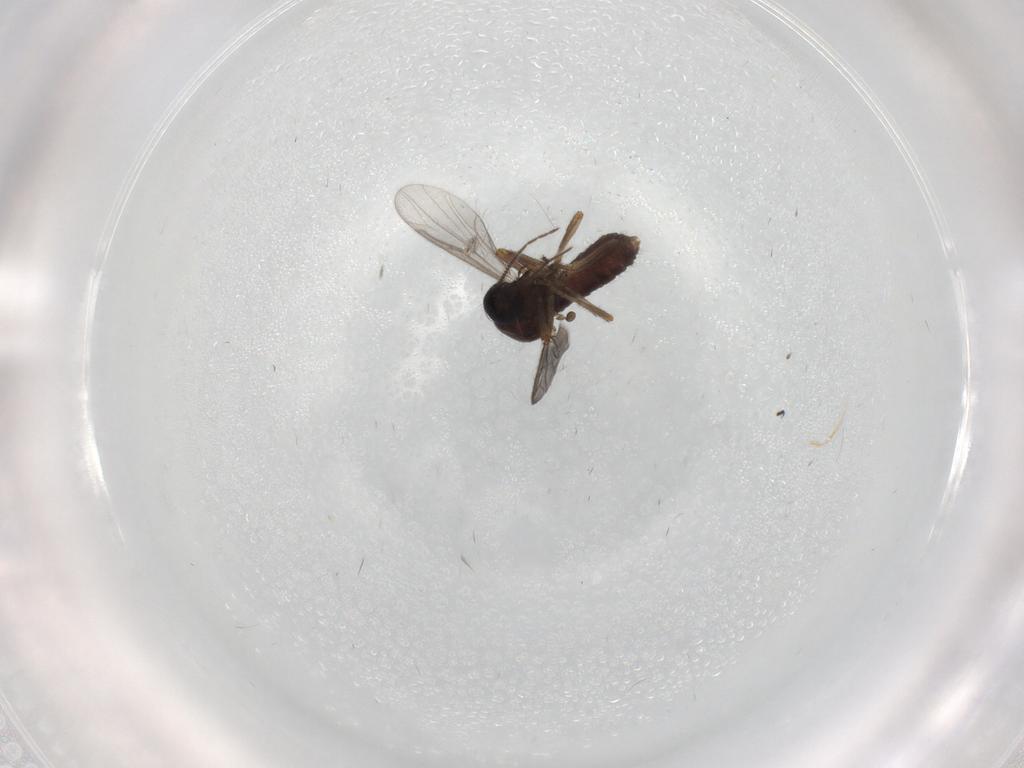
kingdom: Animalia
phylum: Arthropoda
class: Insecta
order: Diptera
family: Ceratopogonidae
